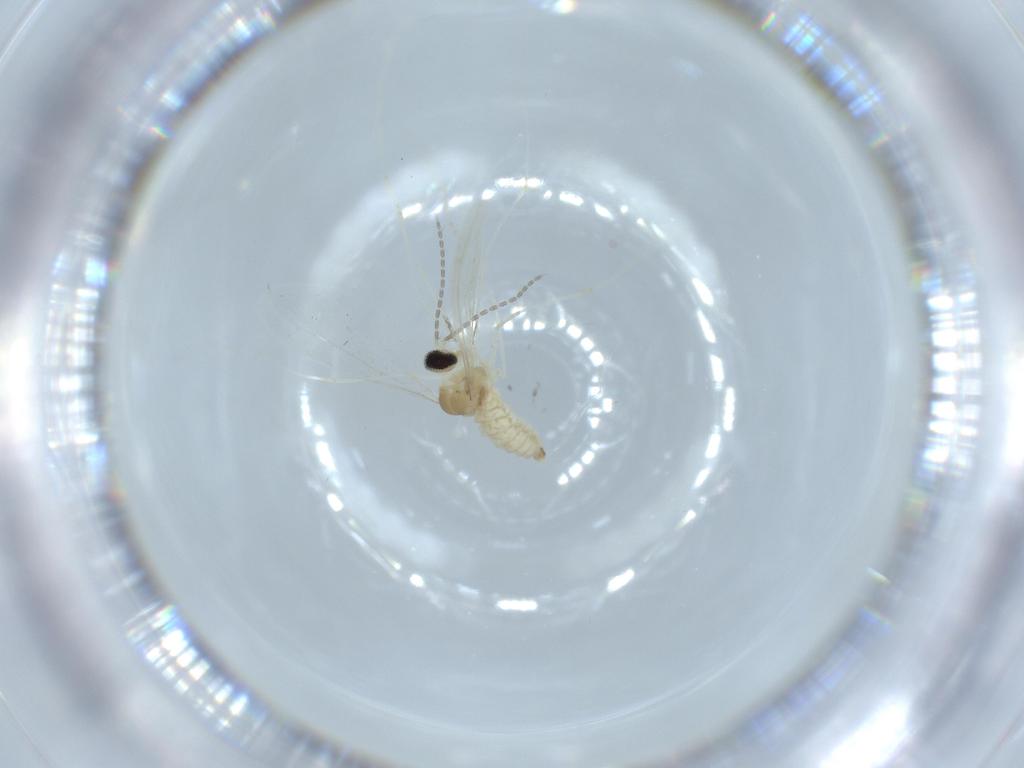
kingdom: Animalia
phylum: Arthropoda
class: Insecta
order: Diptera
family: Cecidomyiidae
